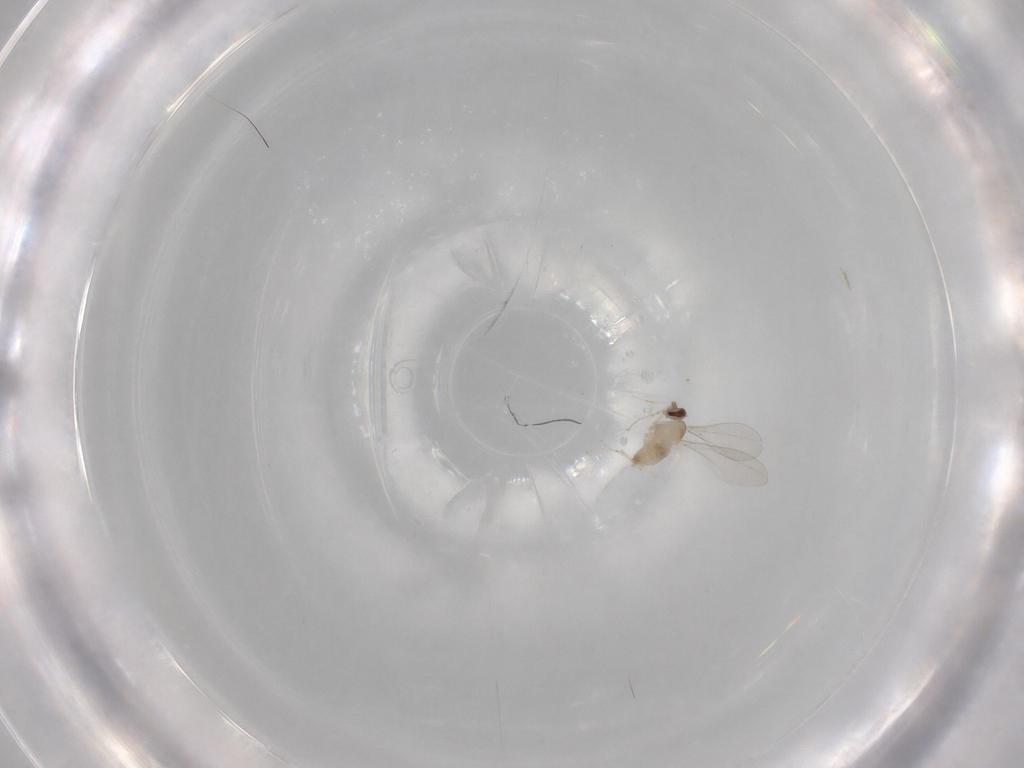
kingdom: Animalia
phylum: Arthropoda
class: Insecta
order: Diptera
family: Cecidomyiidae
